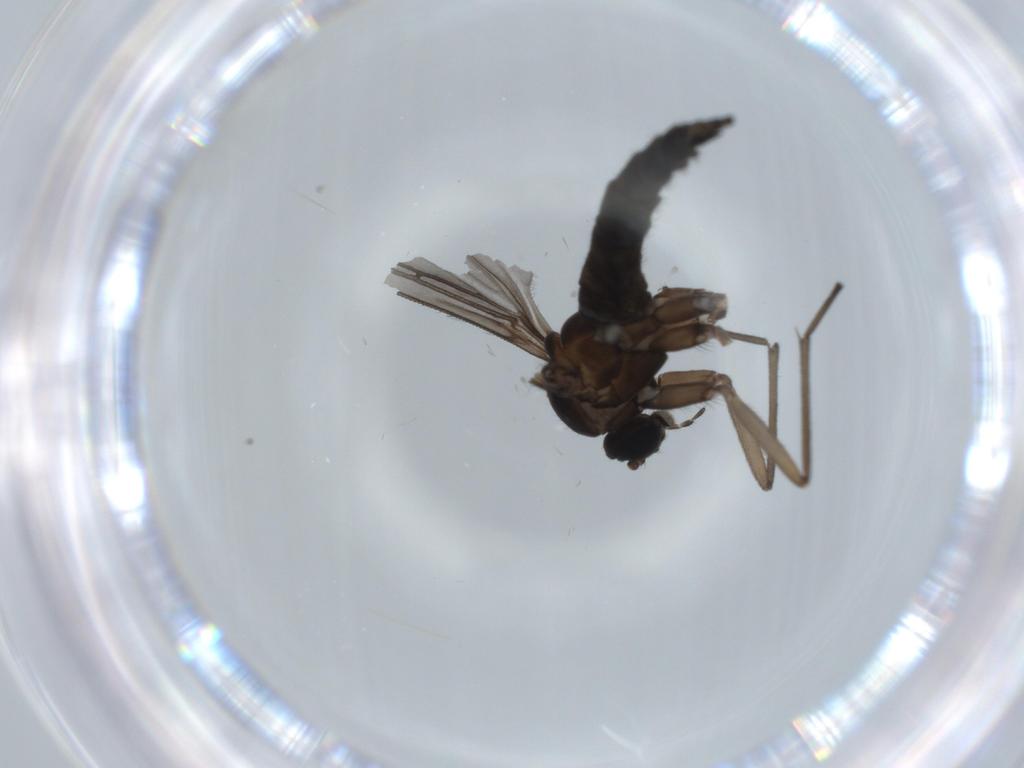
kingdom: Animalia
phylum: Arthropoda
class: Insecta
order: Diptera
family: Sciaridae
